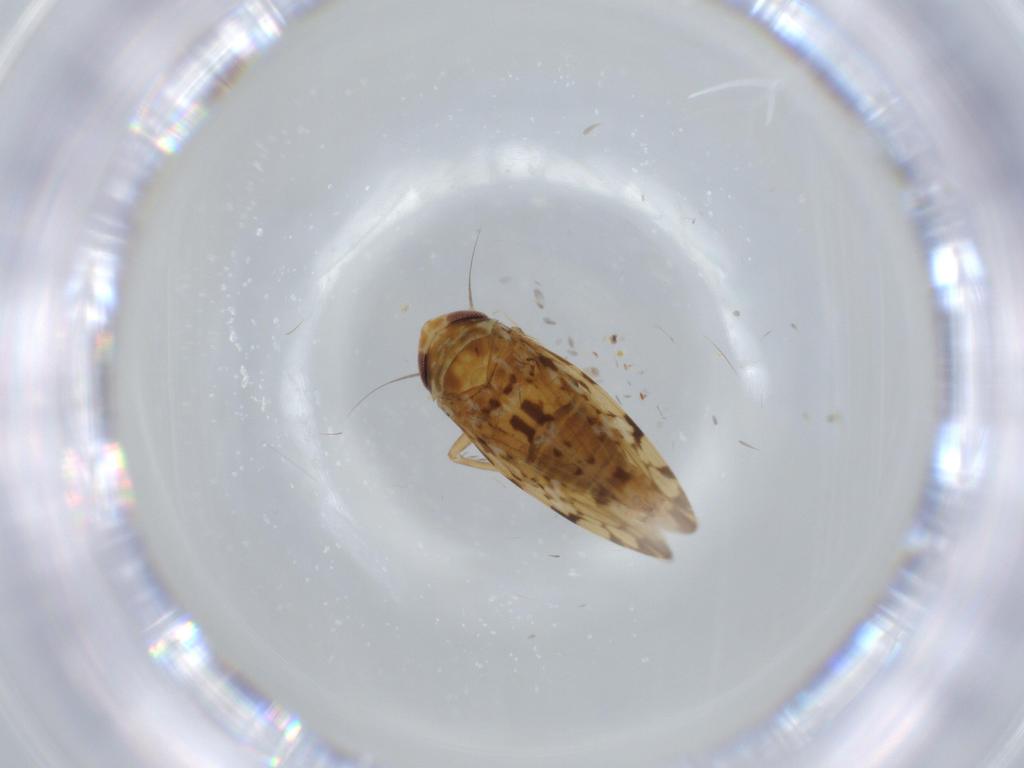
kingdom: Animalia
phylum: Arthropoda
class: Insecta
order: Hemiptera
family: Cicadellidae
